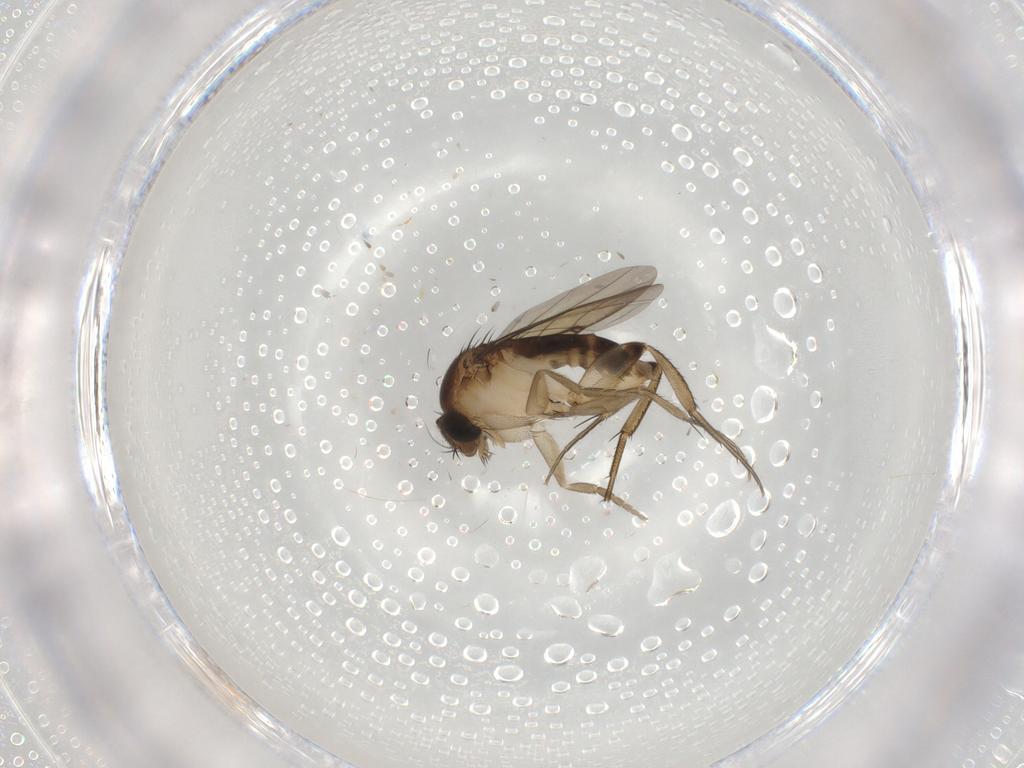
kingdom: Animalia
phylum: Arthropoda
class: Insecta
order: Diptera
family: Phoridae
